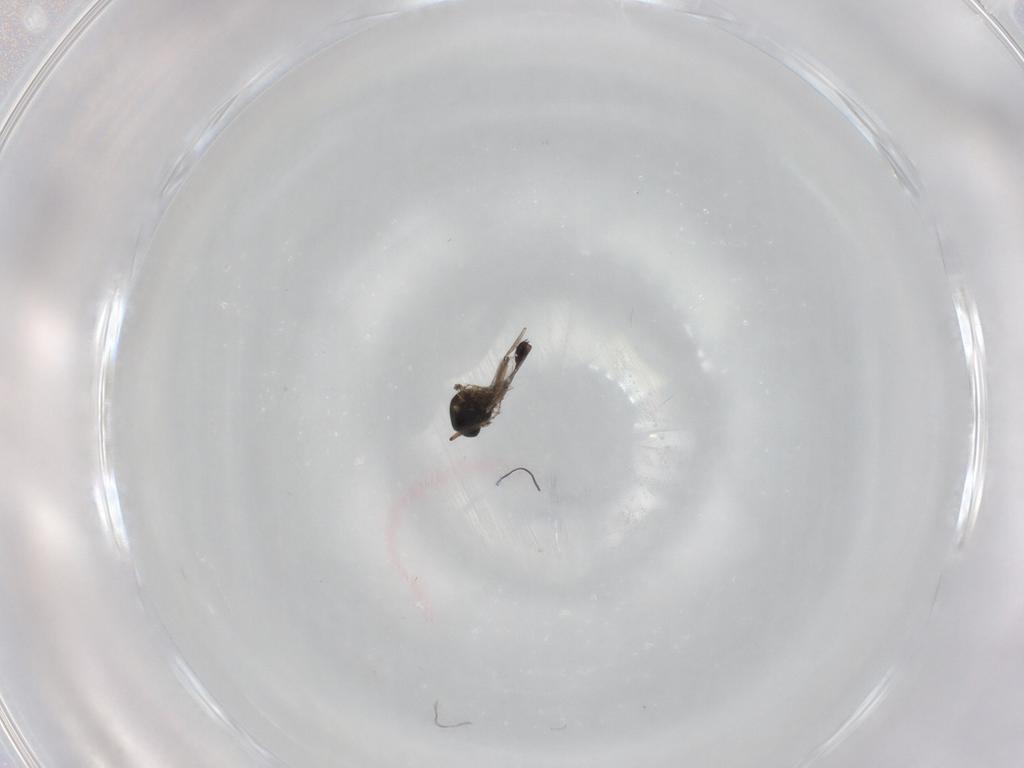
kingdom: Animalia
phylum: Arthropoda
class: Insecta
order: Diptera
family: Ceratopogonidae
